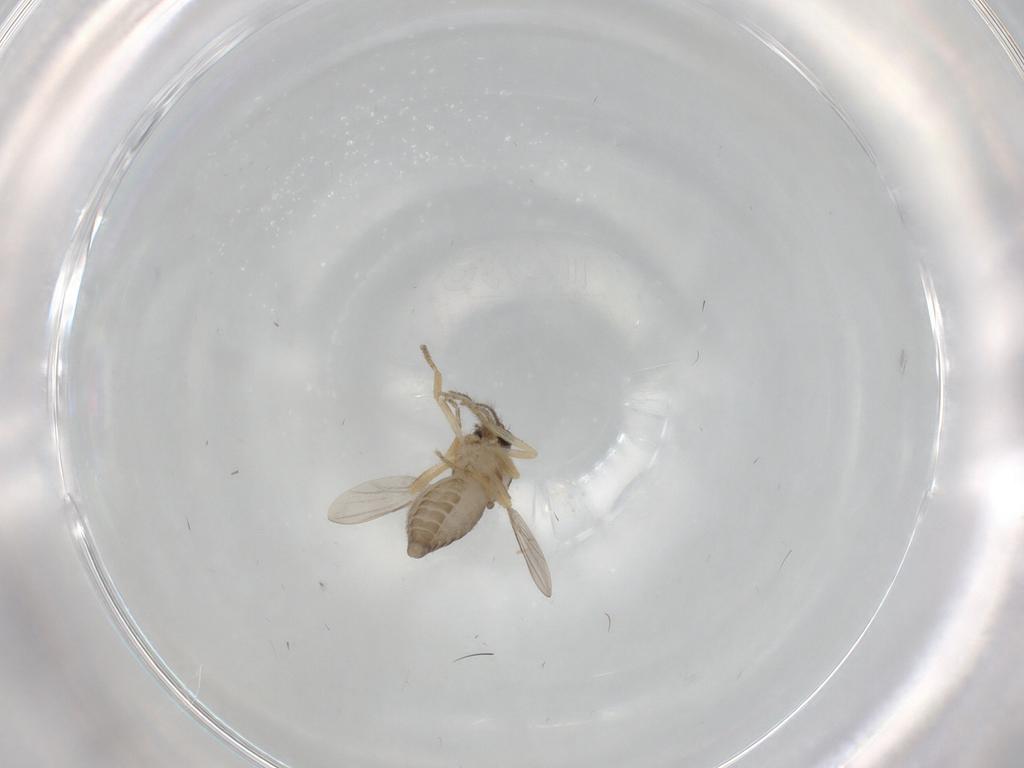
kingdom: Animalia
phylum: Arthropoda
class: Insecta
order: Diptera
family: Ceratopogonidae
